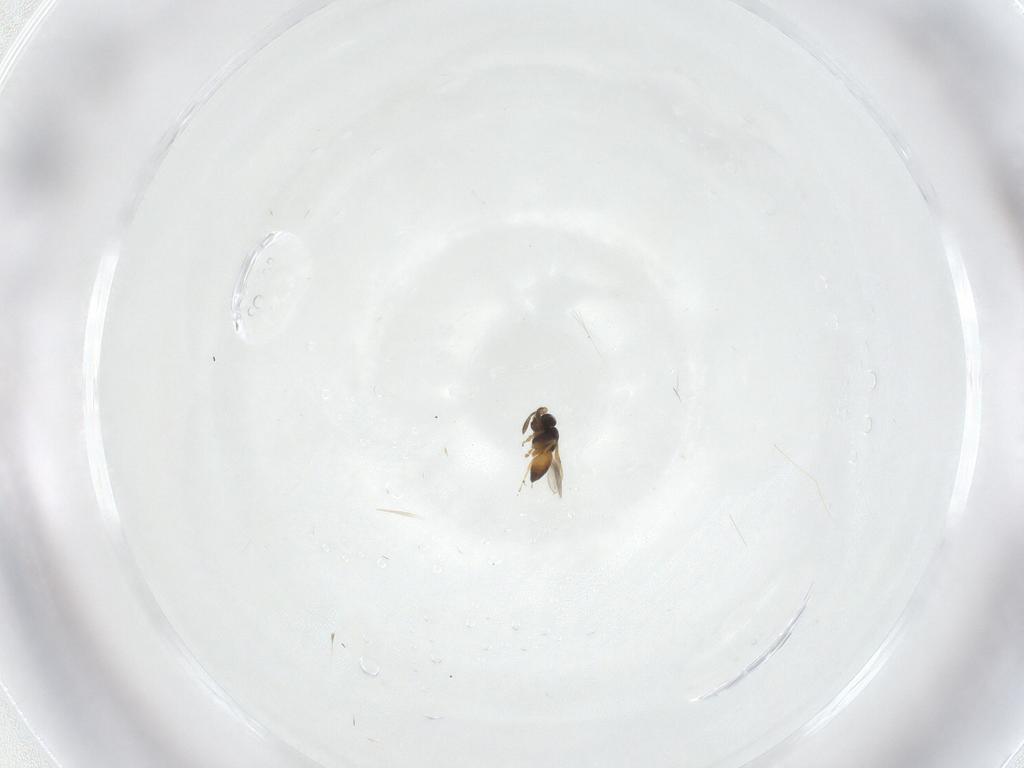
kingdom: Animalia
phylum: Arthropoda
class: Insecta
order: Hymenoptera
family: Scelionidae
